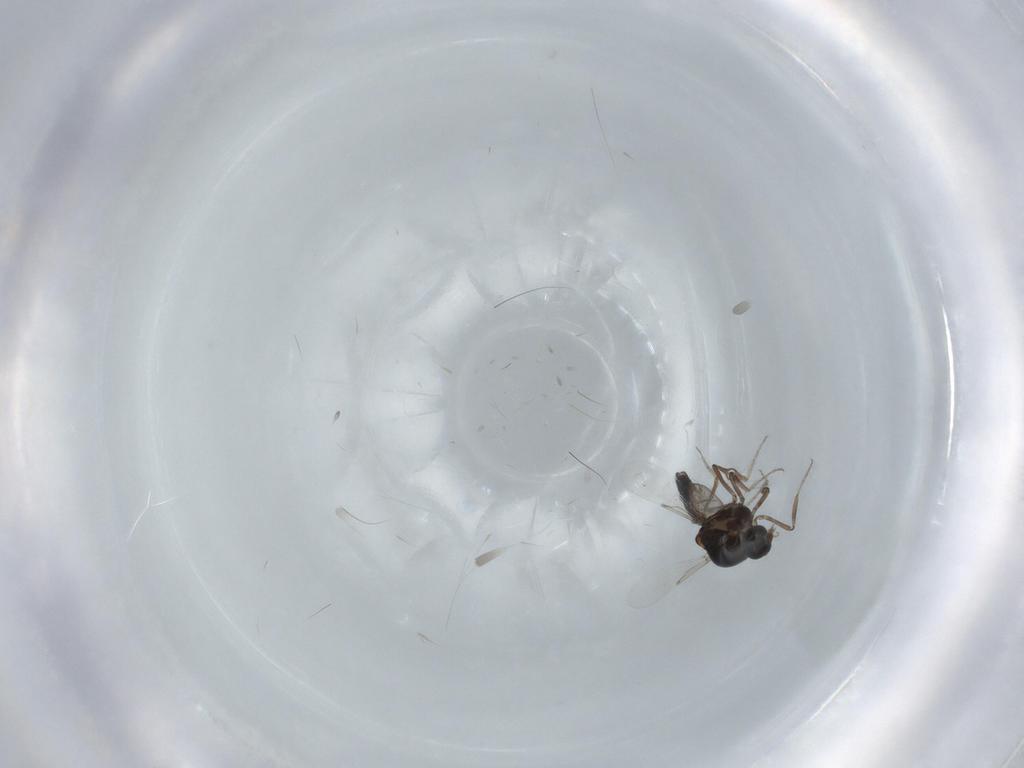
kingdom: Animalia
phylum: Arthropoda
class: Insecta
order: Diptera
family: Ceratopogonidae
